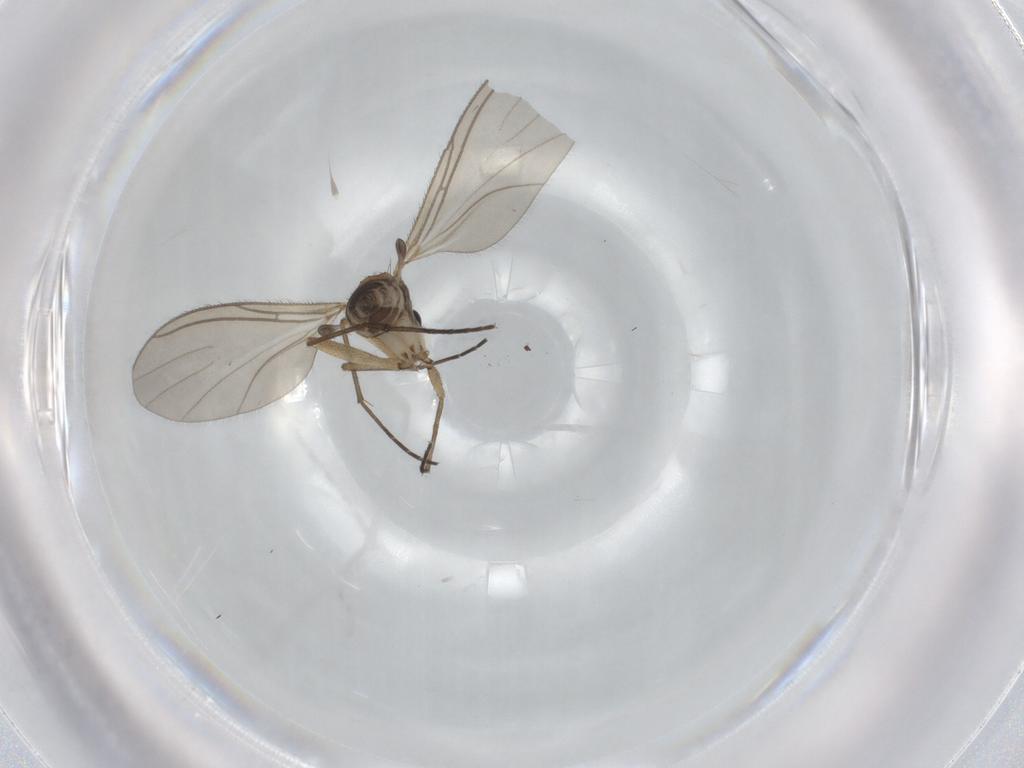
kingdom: Animalia
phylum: Arthropoda
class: Insecta
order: Diptera
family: Sciaridae
